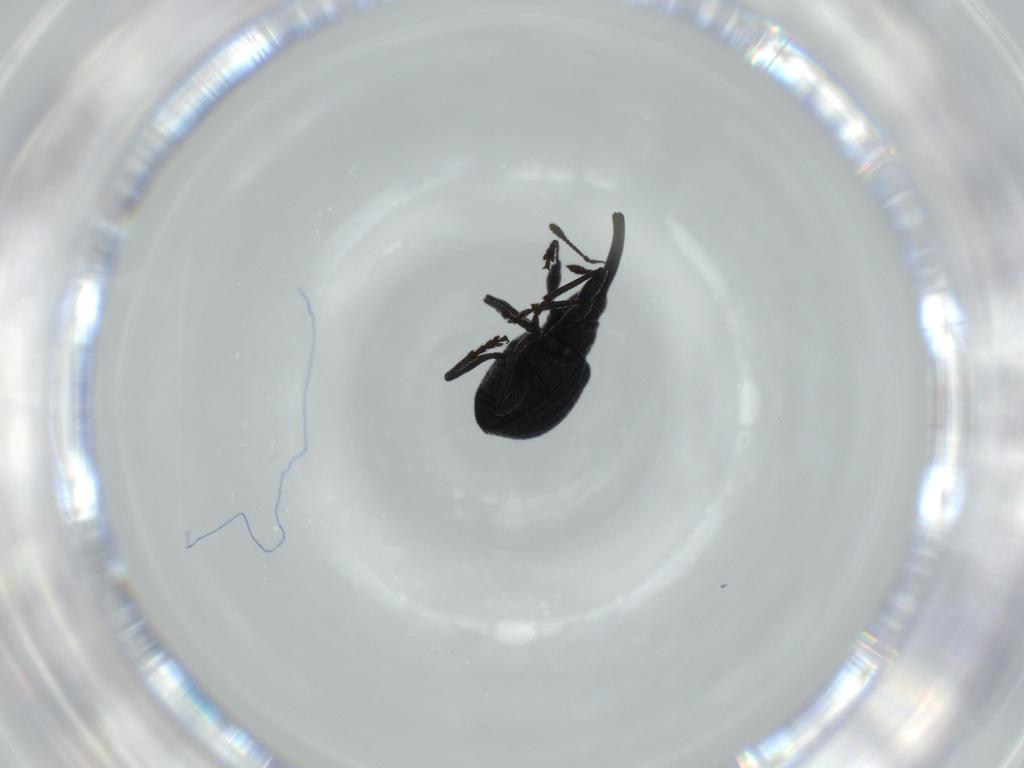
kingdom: Animalia
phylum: Arthropoda
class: Insecta
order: Coleoptera
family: Brentidae
